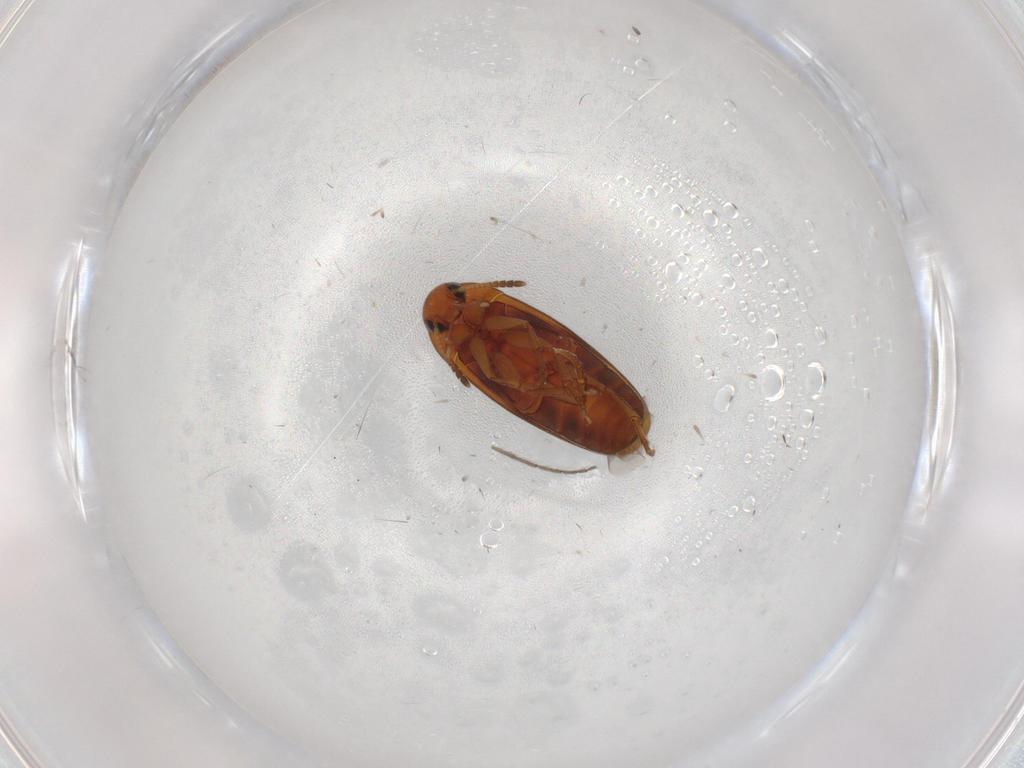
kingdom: Animalia
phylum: Arthropoda
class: Insecta
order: Coleoptera
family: Scraptiidae
